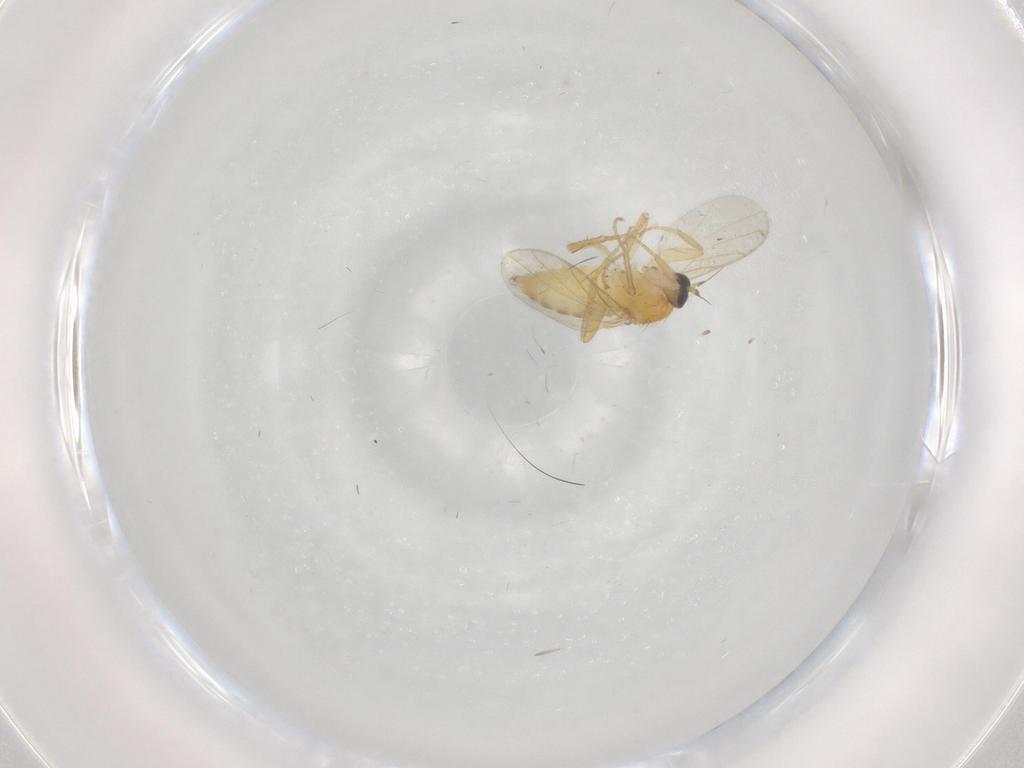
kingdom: Animalia
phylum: Arthropoda
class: Insecta
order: Diptera
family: Hybotidae
